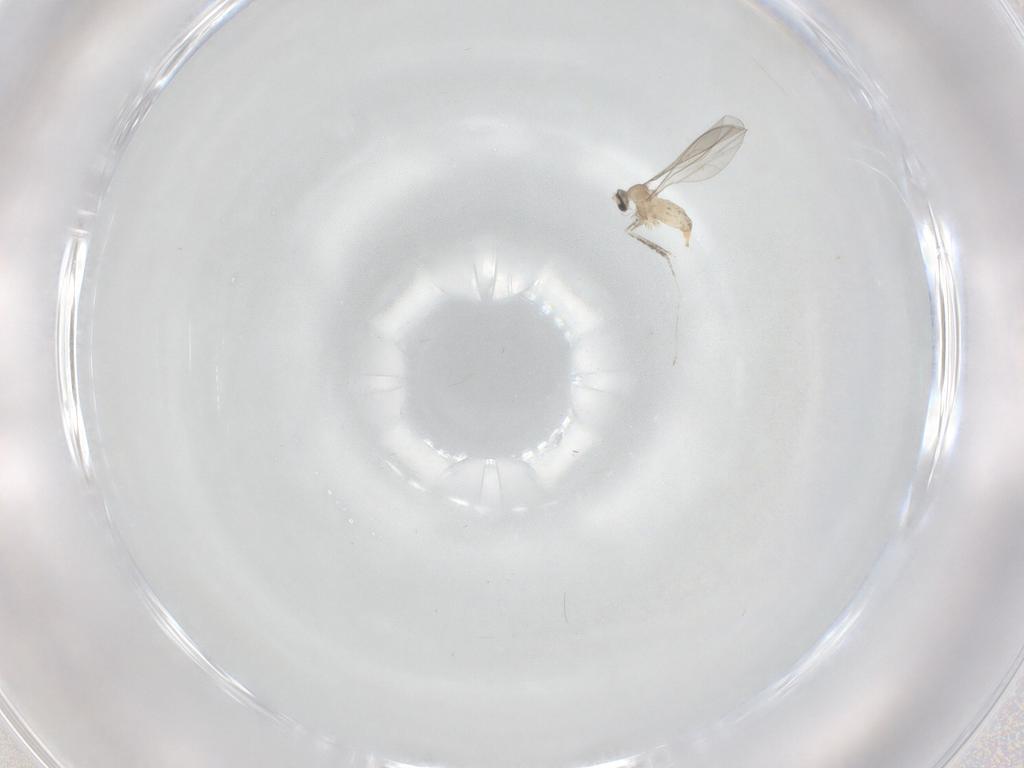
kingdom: Animalia
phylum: Arthropoda
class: Insecta
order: Diptera
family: Cecidomyiidae
